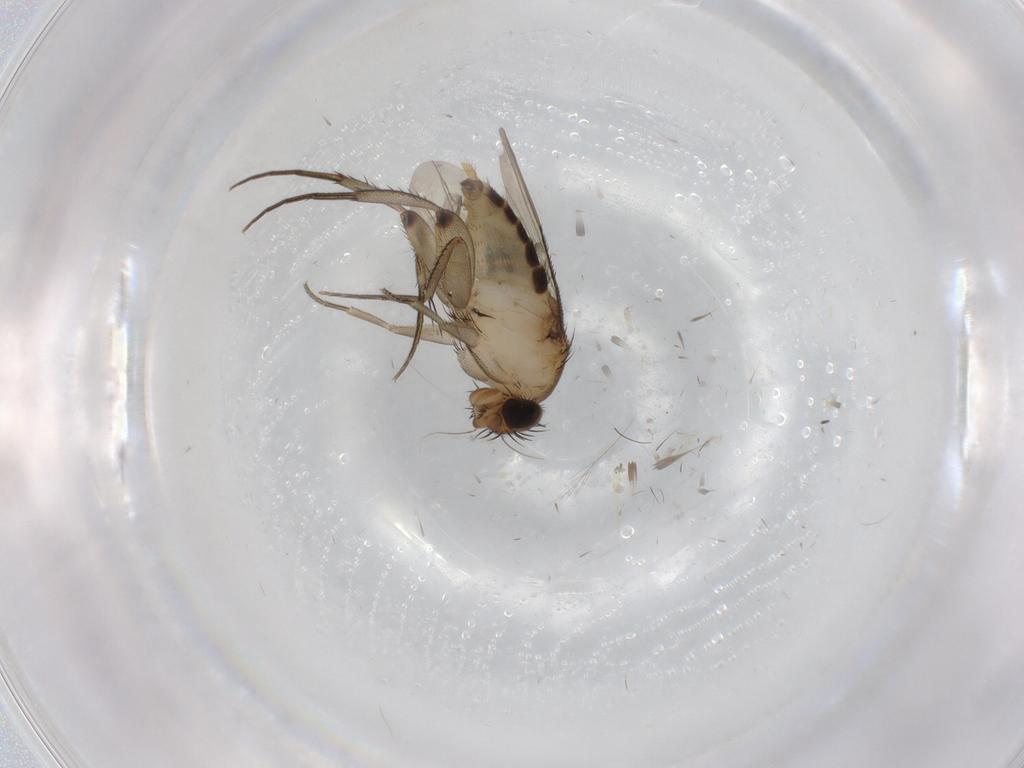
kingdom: Animalia
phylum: Arthropoda
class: Insecta
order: Diptera
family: Phoridae
